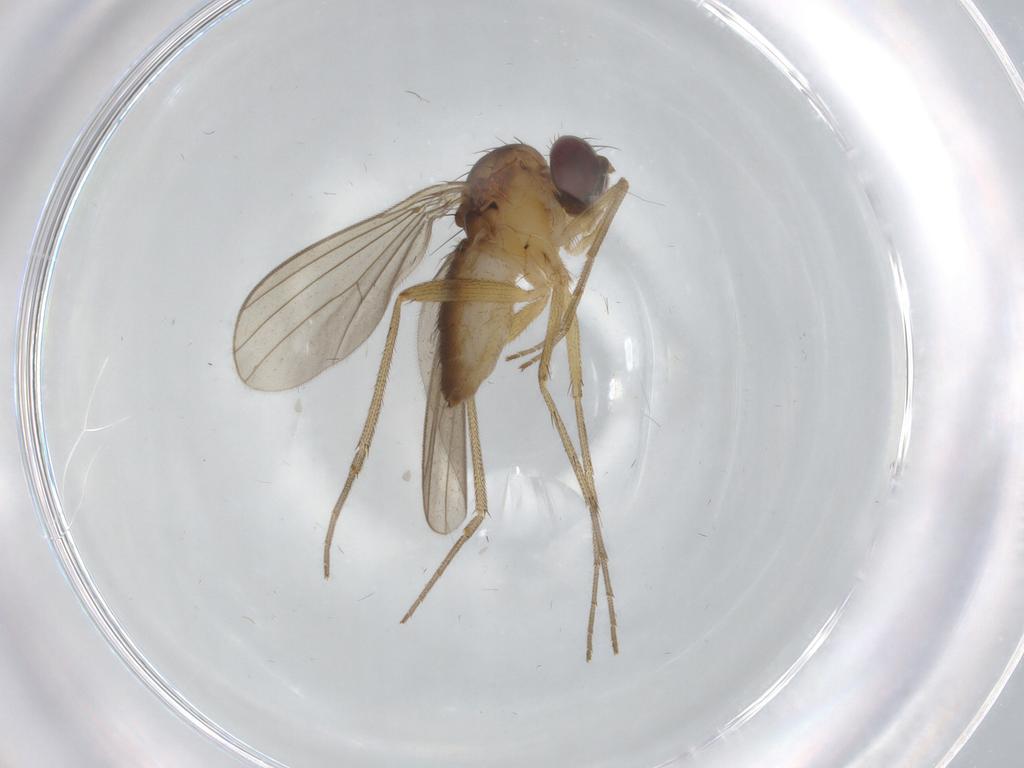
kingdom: Animalia
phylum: Arthropoda
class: Insecta
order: Diptera
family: Dolichopodidae
